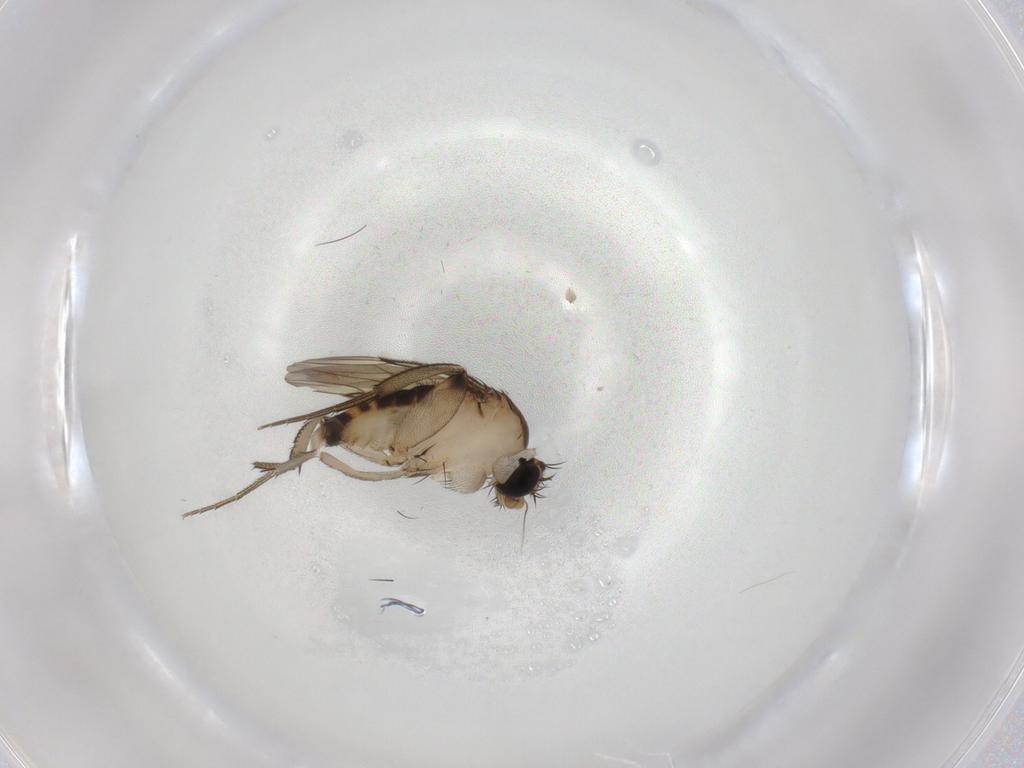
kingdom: Animalia
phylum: Arthropoda
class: Insecta
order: Diptera
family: Phoridae
